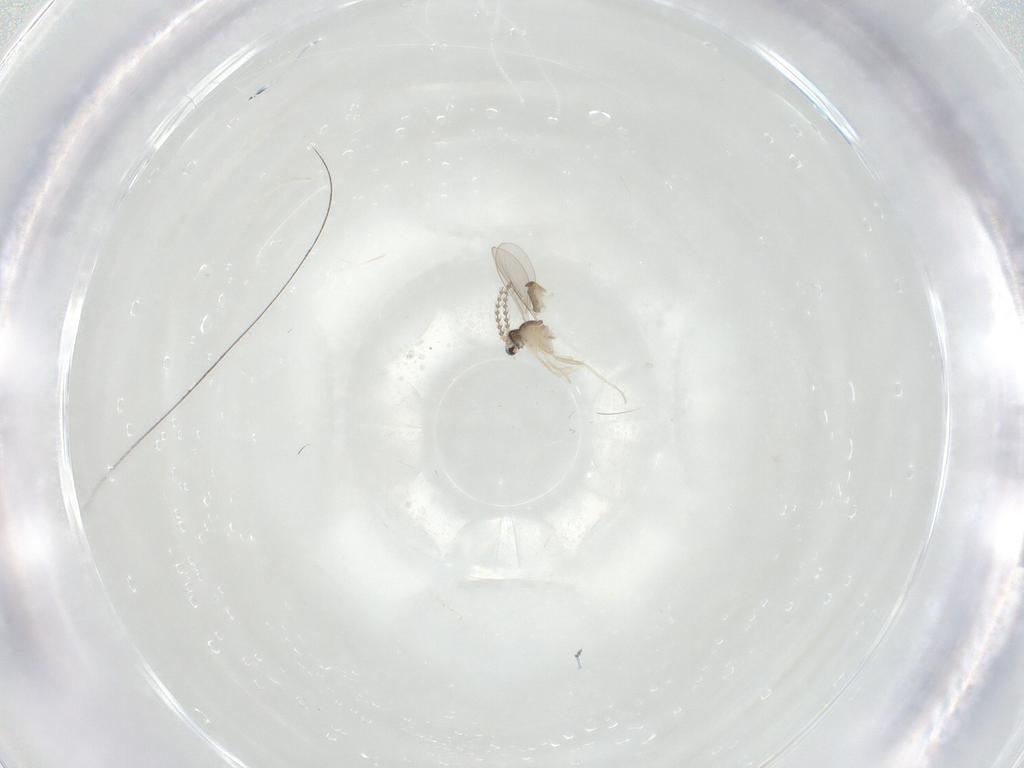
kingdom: Animalia
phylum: Arthropoda
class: Insecta
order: Diptera
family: Cecidomyiidae
